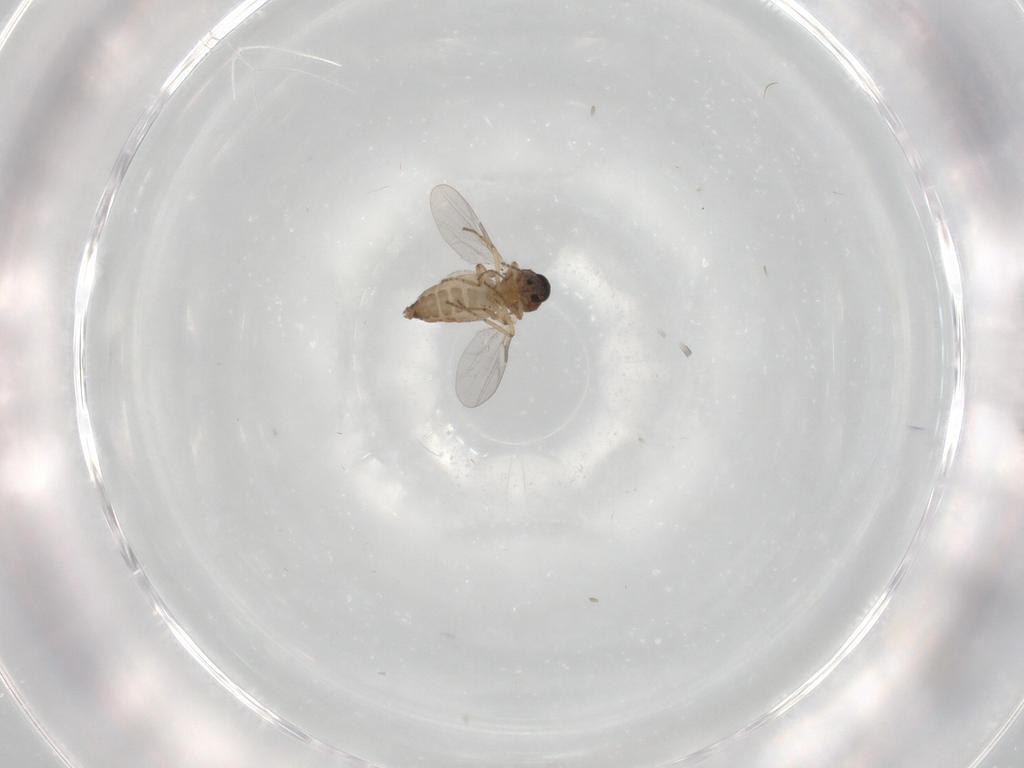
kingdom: Animalia
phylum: Arthropoda
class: Insecta
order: Diptera
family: Ceratopogonidae
